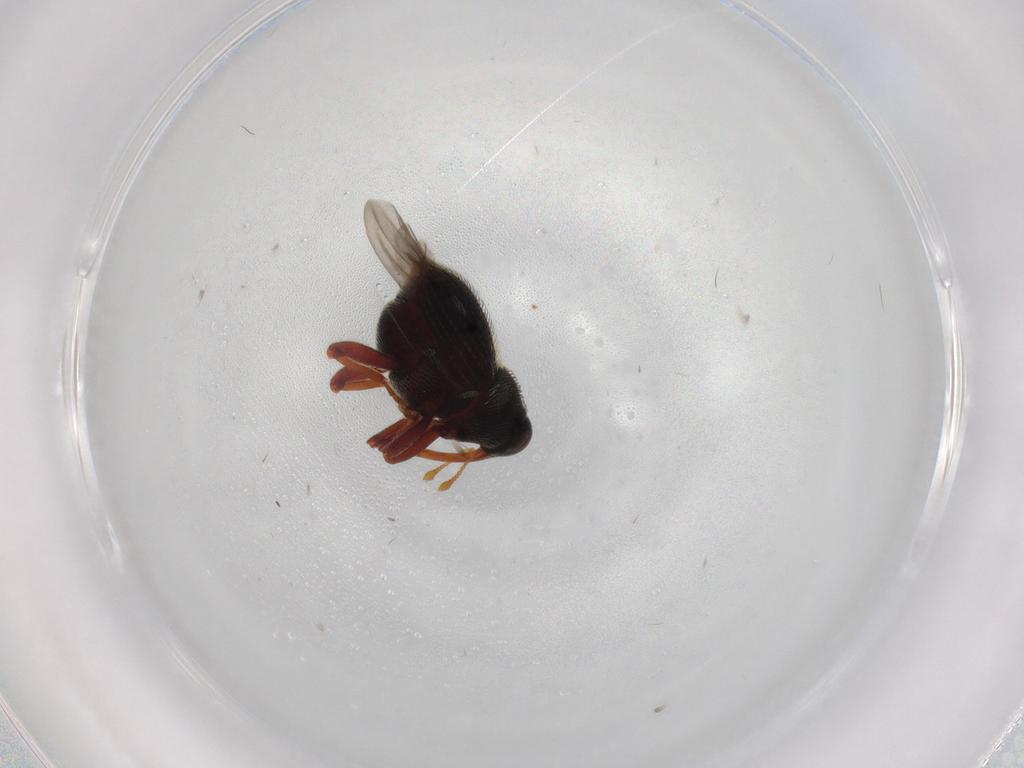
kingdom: Animalia
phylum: Arthropoda
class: Insecta
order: Coleoptera
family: Curculionidae
